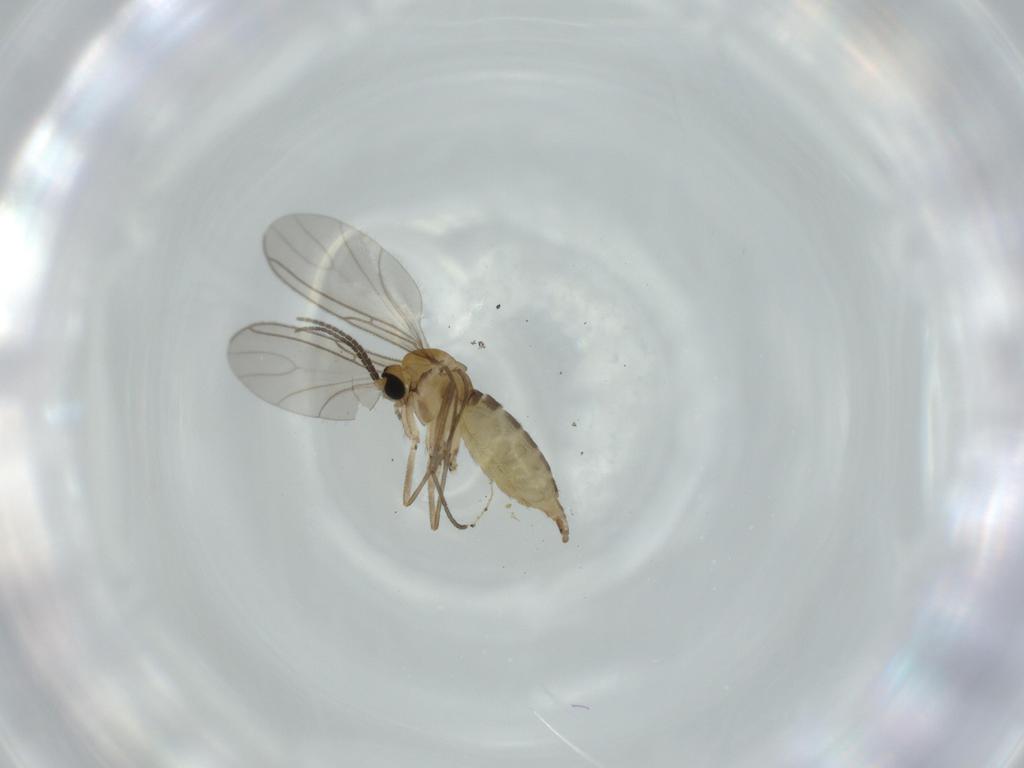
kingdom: Animalia
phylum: Arthropoda
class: Insecta
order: Diptera
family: Sciaridae
